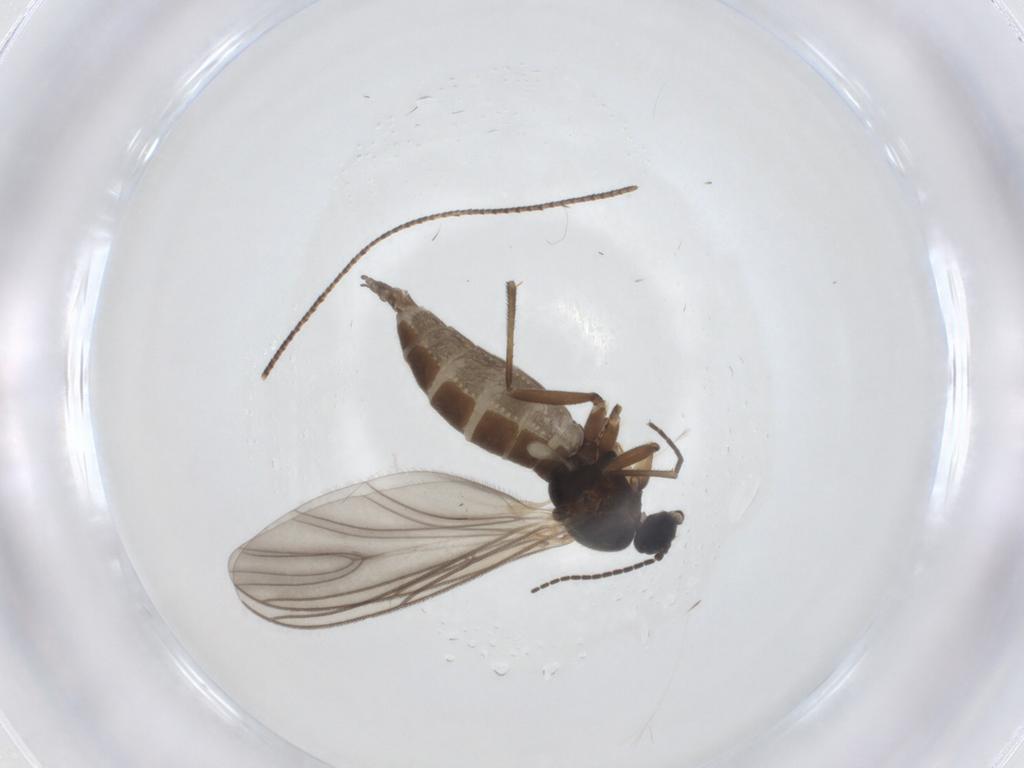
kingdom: Animalia
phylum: Arthropoda
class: Insecta
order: Diptera
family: Sciaridae
